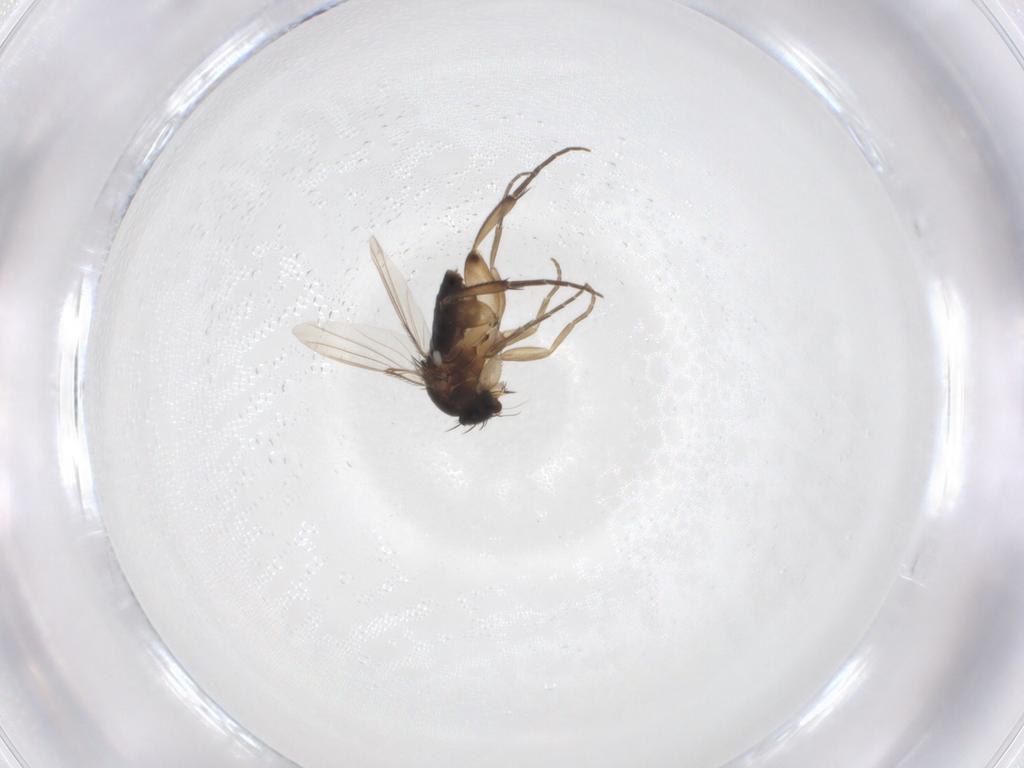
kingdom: Animalia
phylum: Arthropoda
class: Insecta
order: Diptera
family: Phoridae
